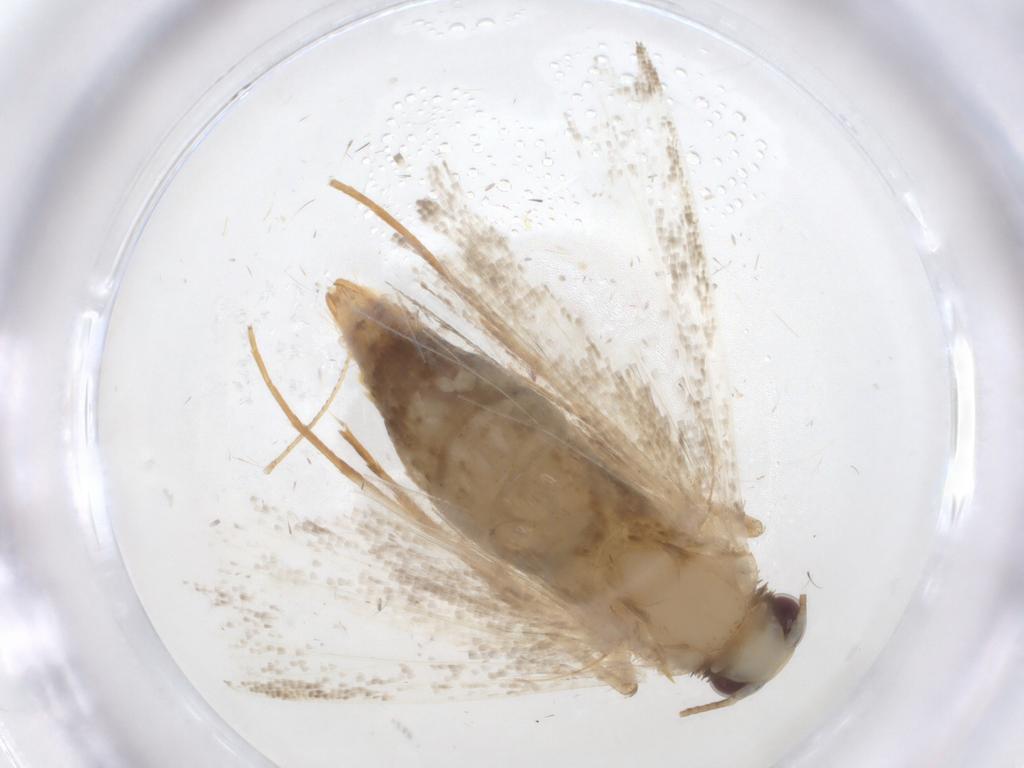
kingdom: Animalia
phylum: Arthropoda
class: Insecta
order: Lepidoptera
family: Oecophoridae
